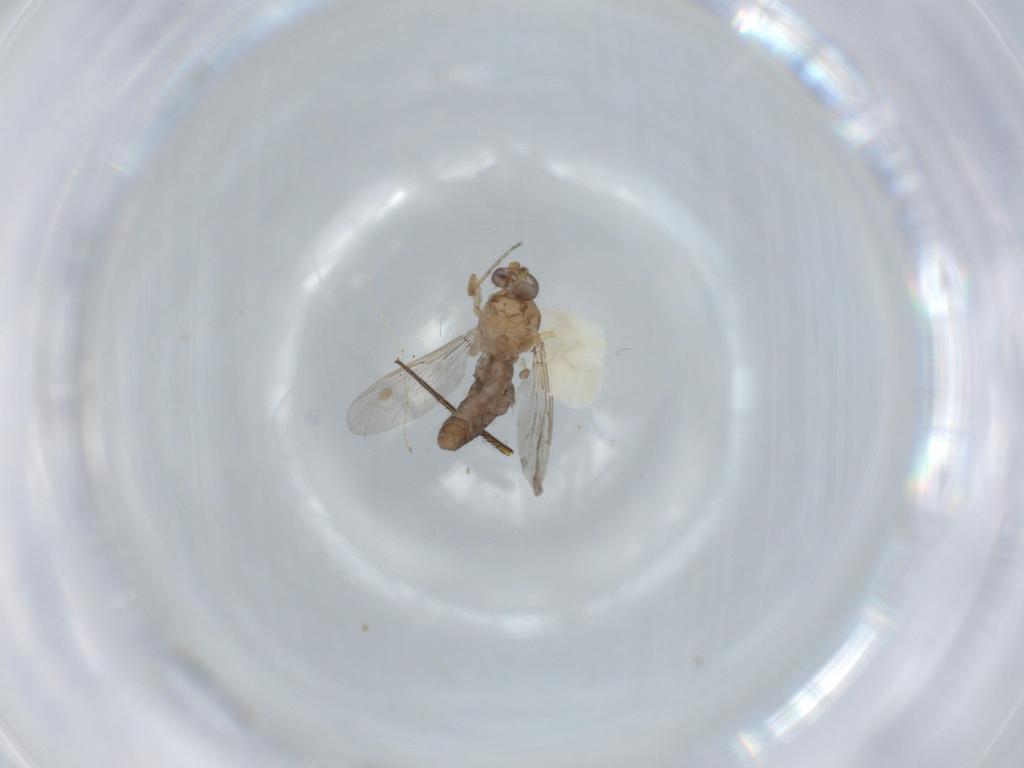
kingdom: Animalia
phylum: Arthropoda
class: Insecta
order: Diptera
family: Ceratopogonidae
